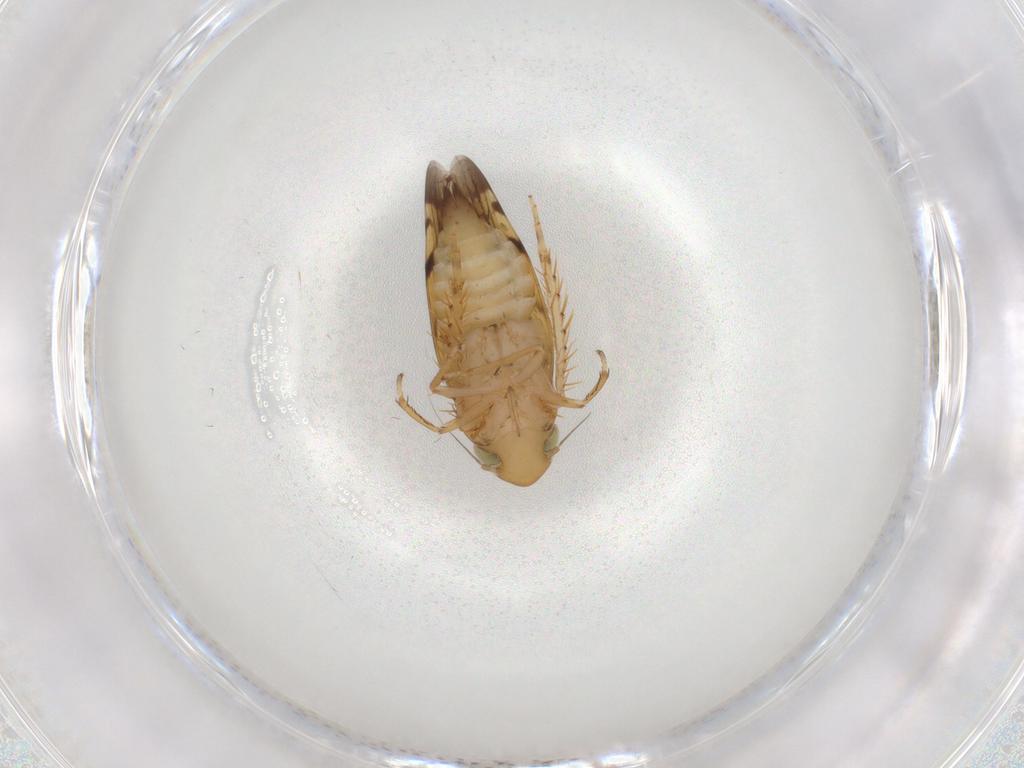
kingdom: Animalia
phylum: Arthropoda
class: Insecta
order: Hemiptera
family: Cicadellidae
